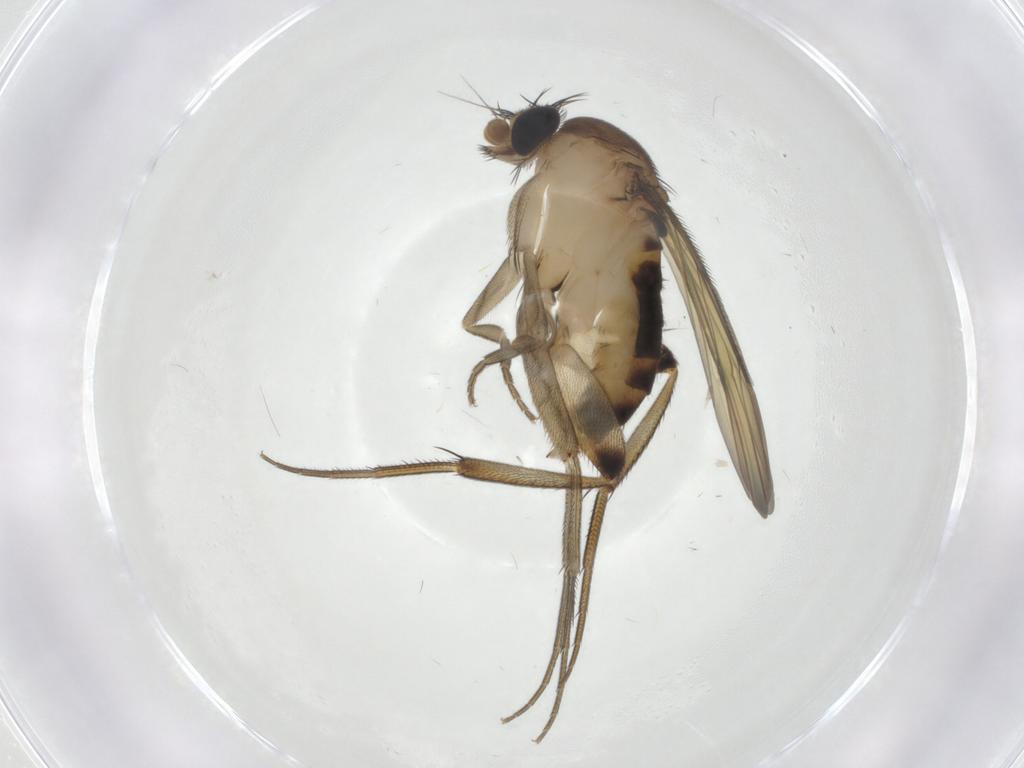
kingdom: Animalia
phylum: Arthropoda
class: Insecta
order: Diptera
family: Phoridae
